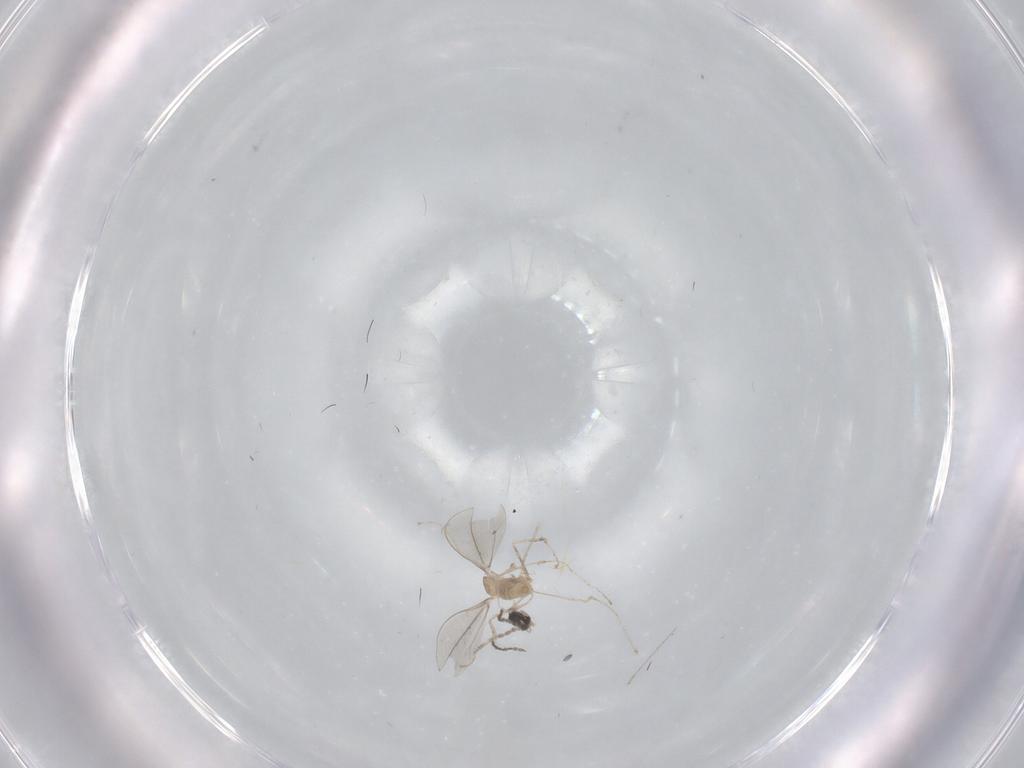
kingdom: Animalia
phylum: Arthropoda
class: Insecta
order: Diptera
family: Cecidomyiidae
